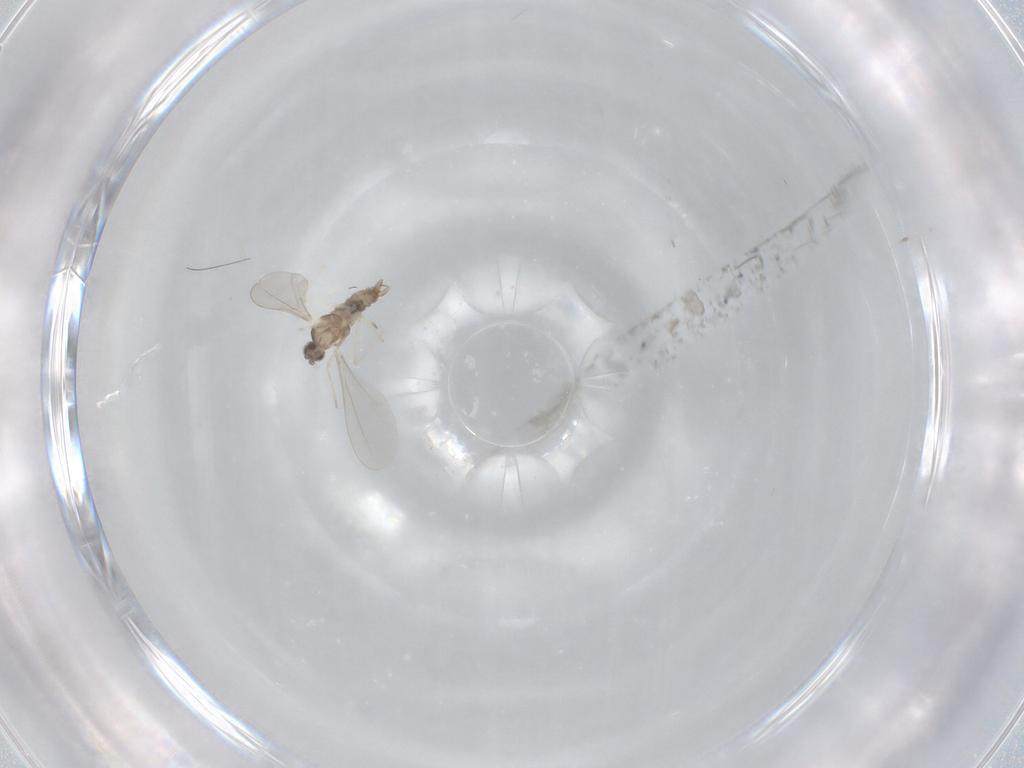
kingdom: Animalia
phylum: Arthropoda
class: Insecta
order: Diptera
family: Cecidomyiidae
